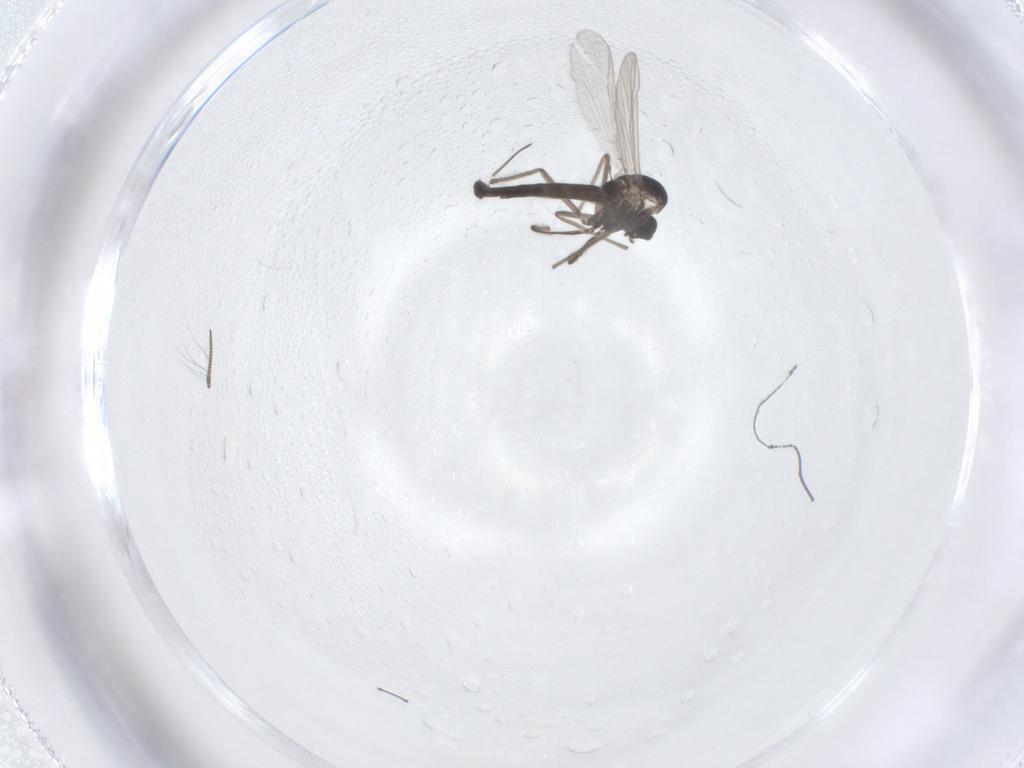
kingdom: Animalia
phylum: Arthropoda
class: Insecta
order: Diptera
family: Chironomidae
